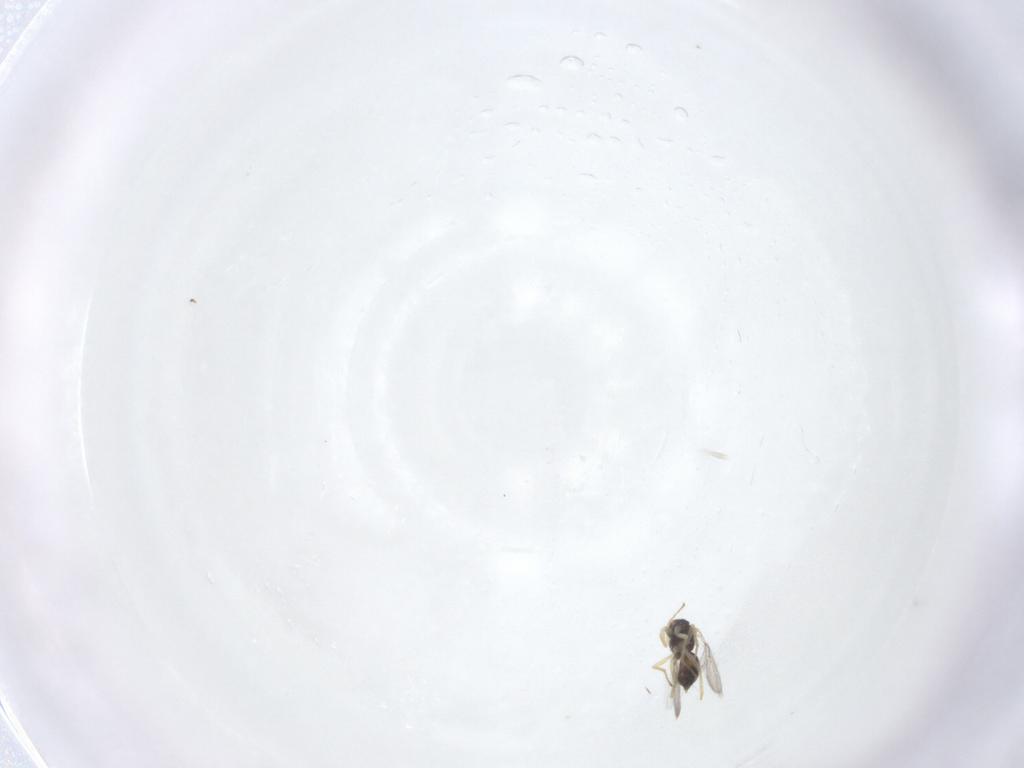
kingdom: Animalia
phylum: Arthropoda
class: Insecta
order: Hymenoptera
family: Eulophidae
